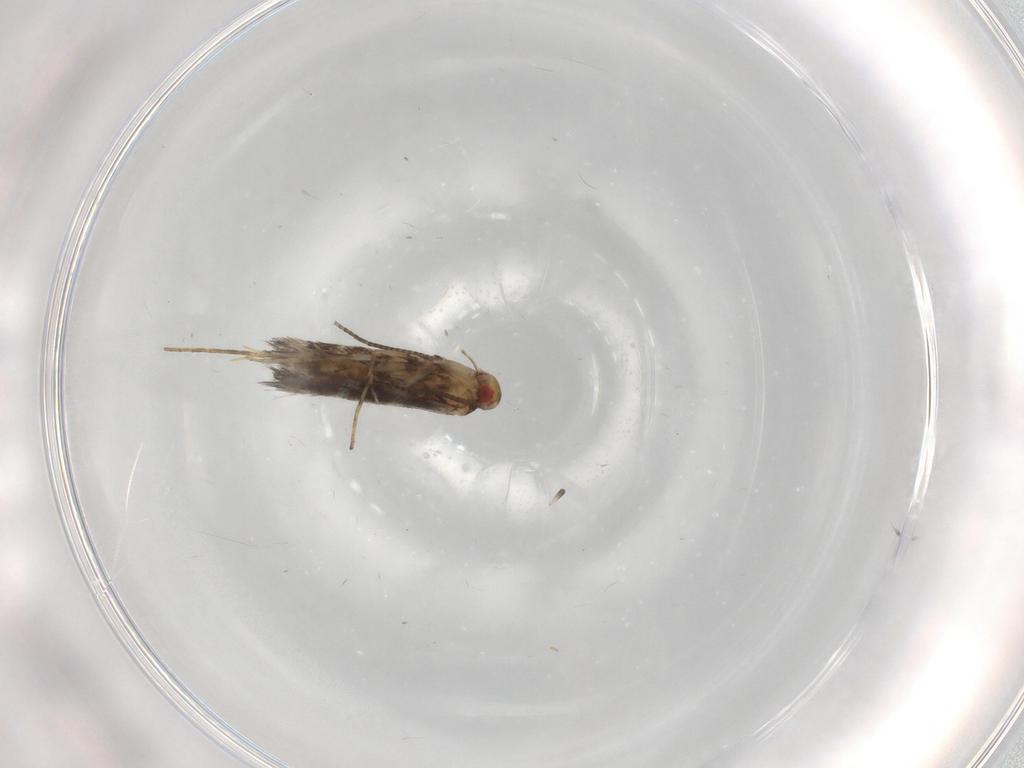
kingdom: Animalia
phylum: Arthropoda
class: Insecta
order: Lepidoptera
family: Gracillariidae
